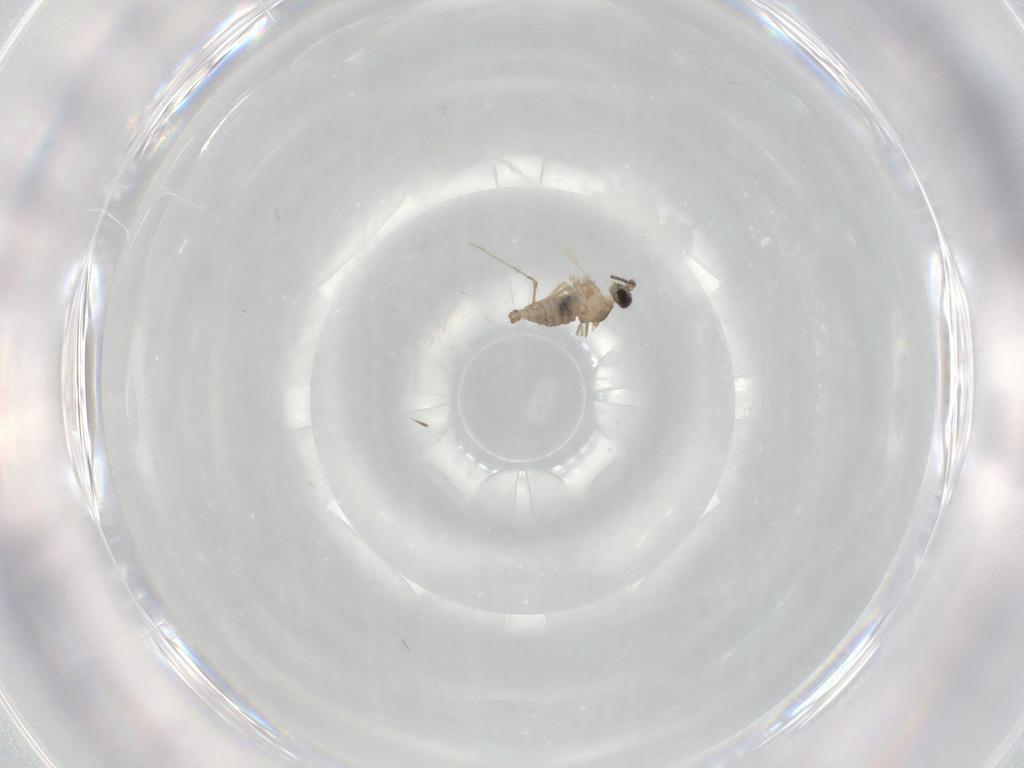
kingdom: Animalia
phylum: Arthropoda
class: Insecta
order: Diptera
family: Cecidomyiidae
